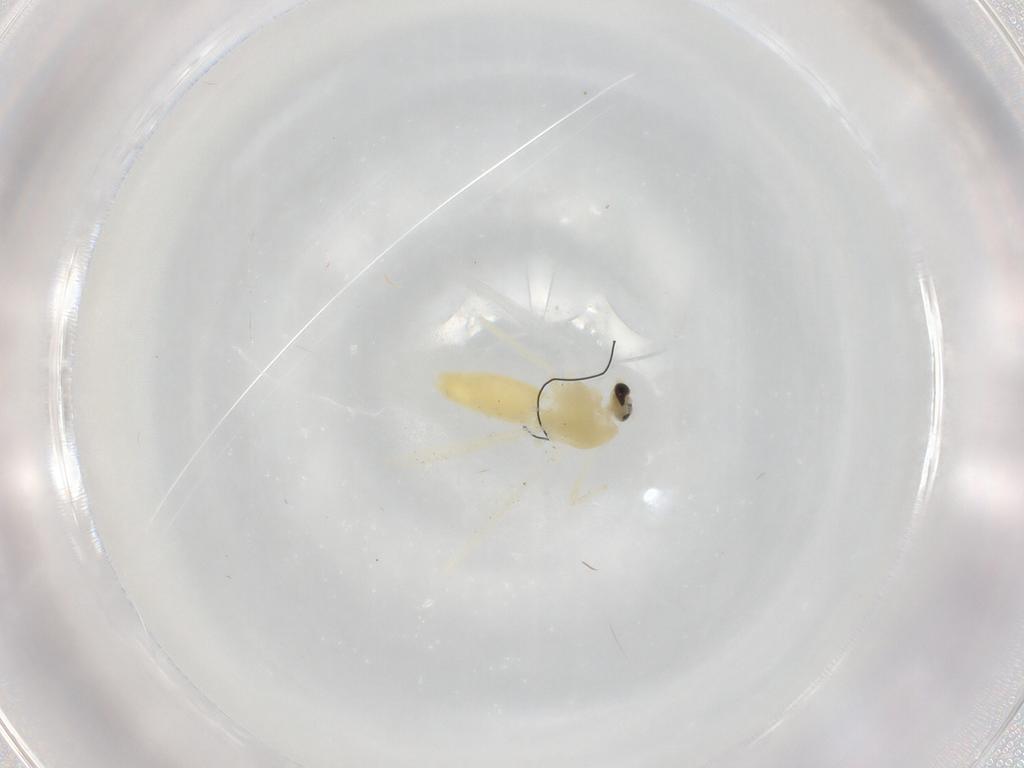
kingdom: Animalia
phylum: Arthropoda
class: Insecta
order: Diptera
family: Chironomidae
